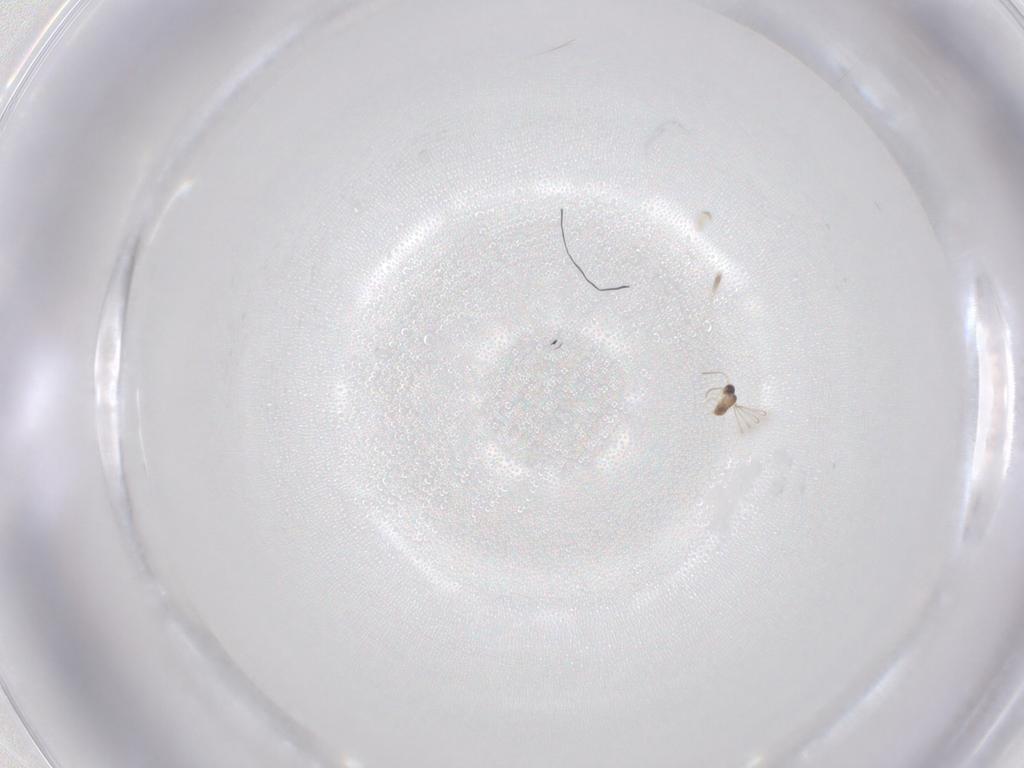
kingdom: Animalia
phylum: Arthropoda
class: Insecta
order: Hymenoptera
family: Mymaridae
